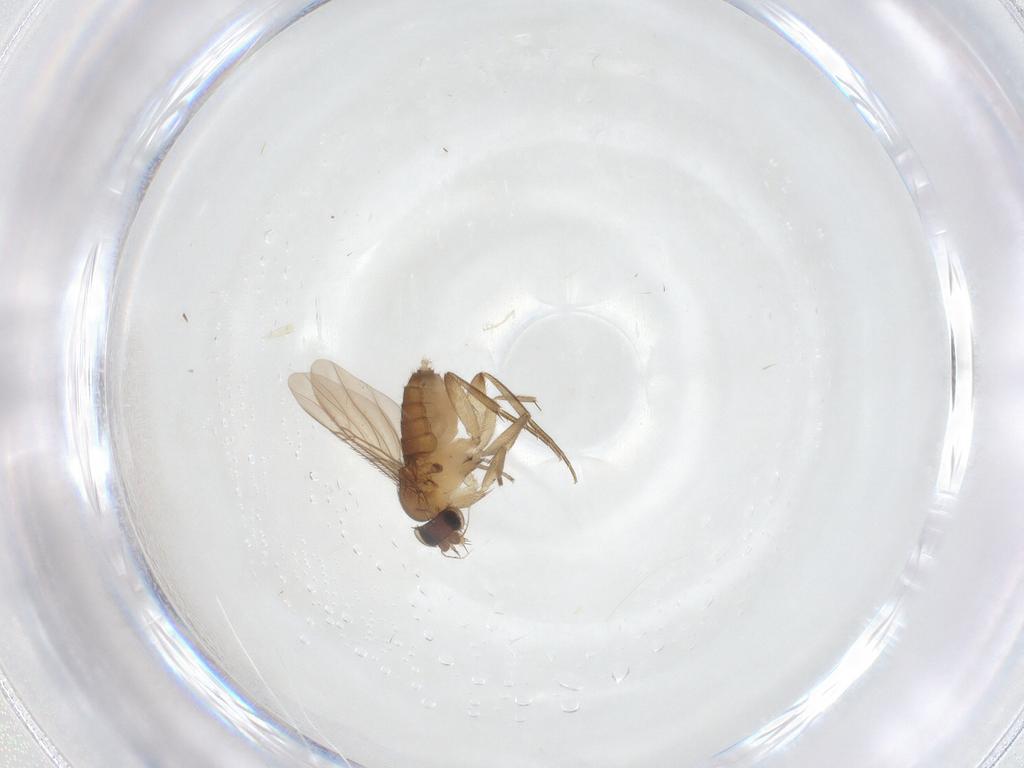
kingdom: Animalia
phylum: Arthropoda
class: Insecta
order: Diptera
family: Phoridae
